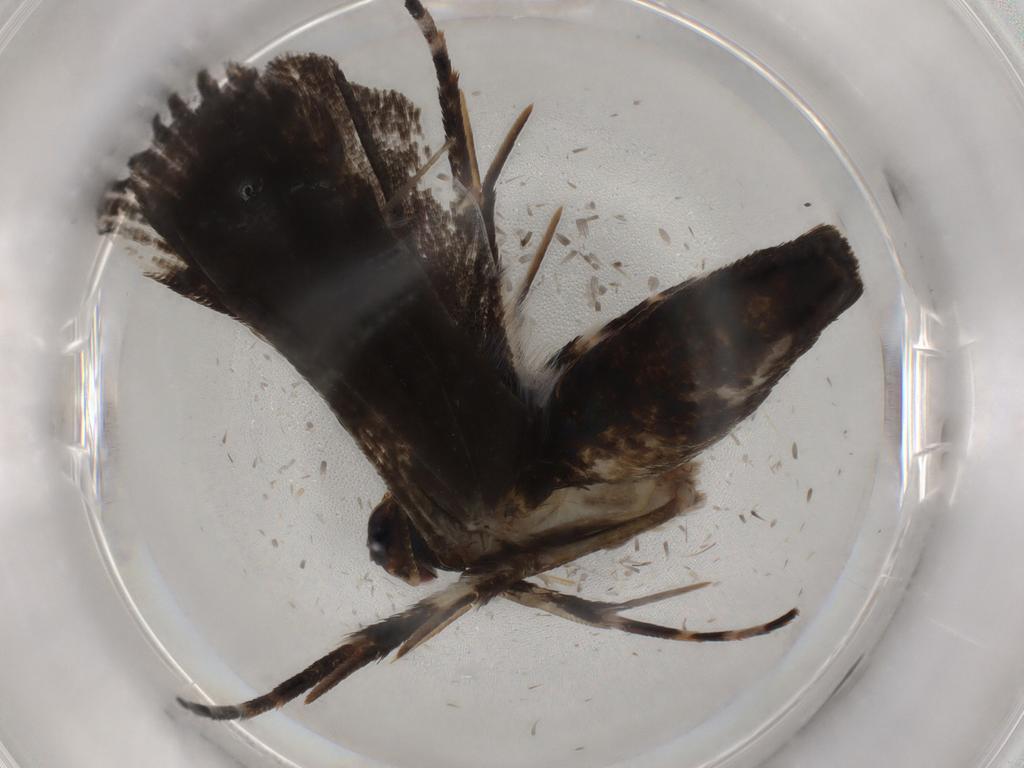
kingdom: Animalia
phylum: Arthropoda
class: Insecta
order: Lepidoptera
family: Gelechiidae
